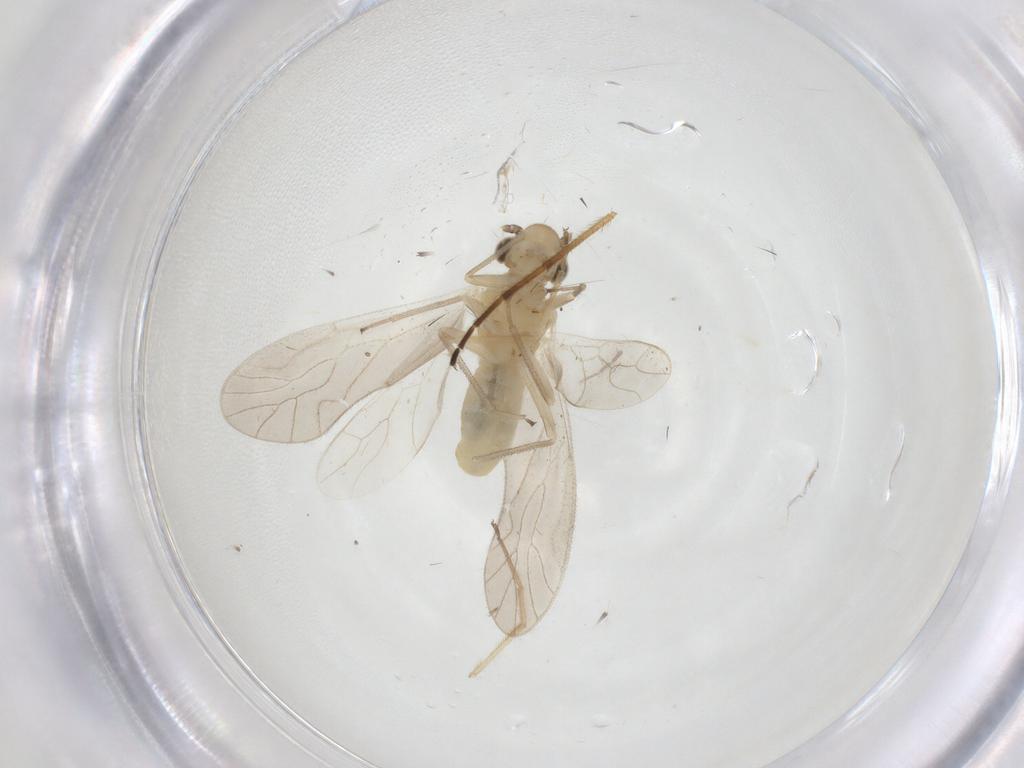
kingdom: Animalia
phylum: Arthropoda
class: Insecta
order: Psocodea
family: Caeciliusidae
